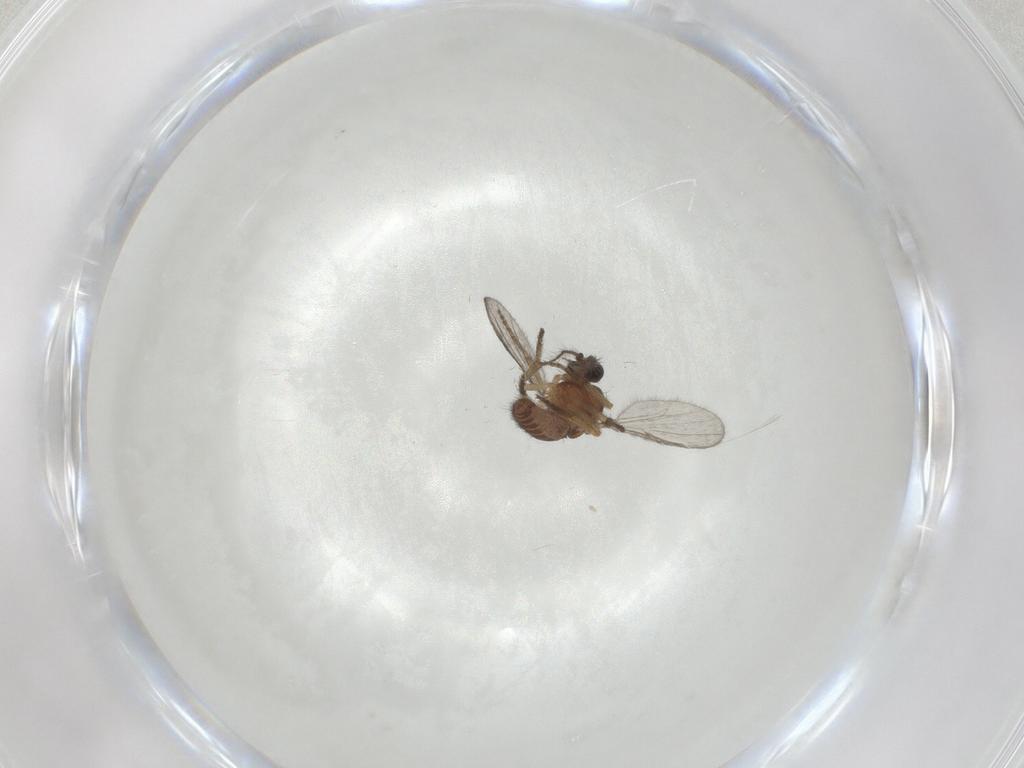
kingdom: Animalia
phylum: Arthropoda
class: Insecta
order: Diptera
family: Ceratopogonidae
